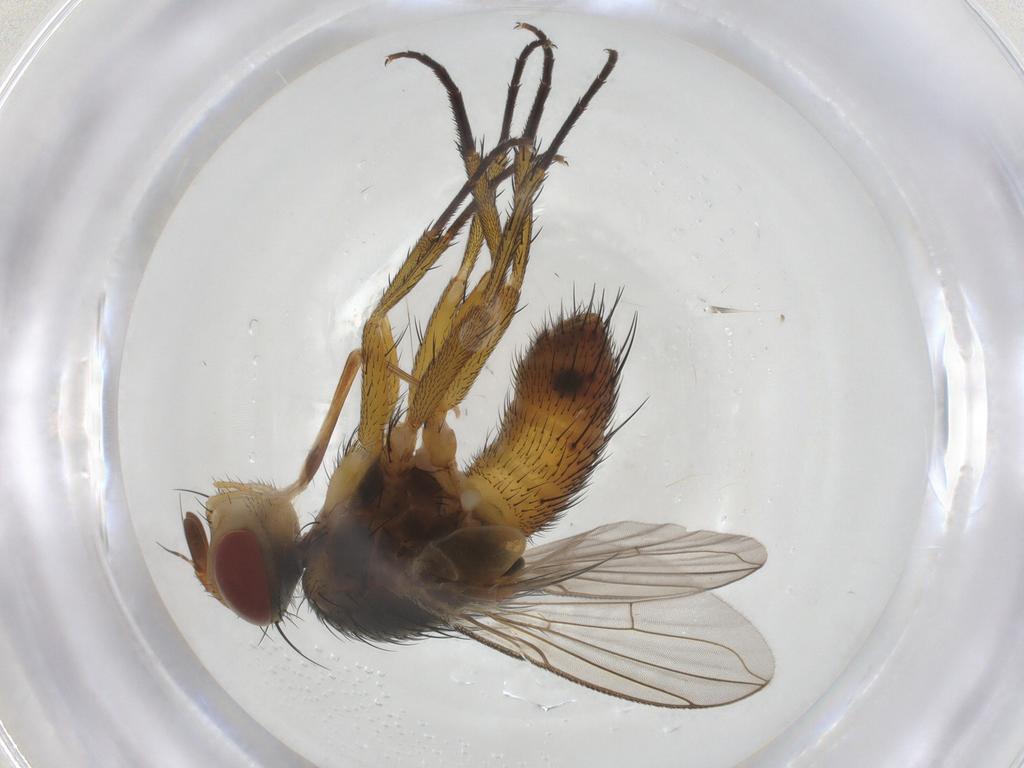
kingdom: Animalia
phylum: Arthropoda
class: Insecta
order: Diptera
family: Tachinidae
